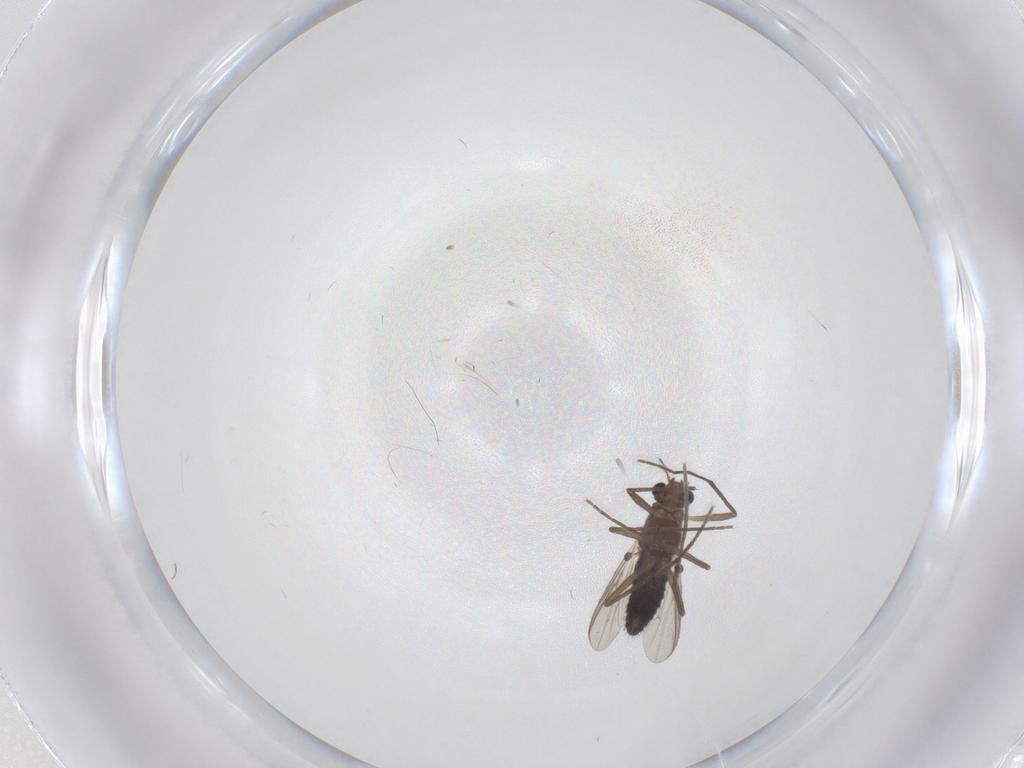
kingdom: Animalia
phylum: Arthropoda
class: Insecta
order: Diptera
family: Chironomidae
